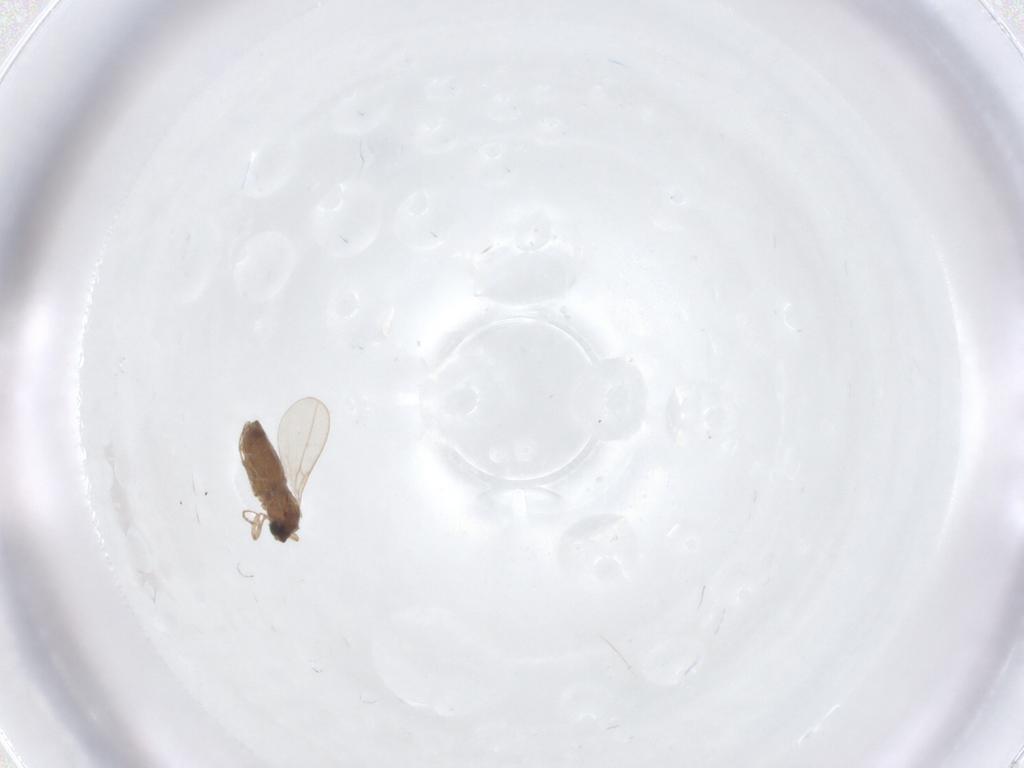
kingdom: Animalia
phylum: Arthropoda
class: Insecta
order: Diptera
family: Cecidomyiidae
